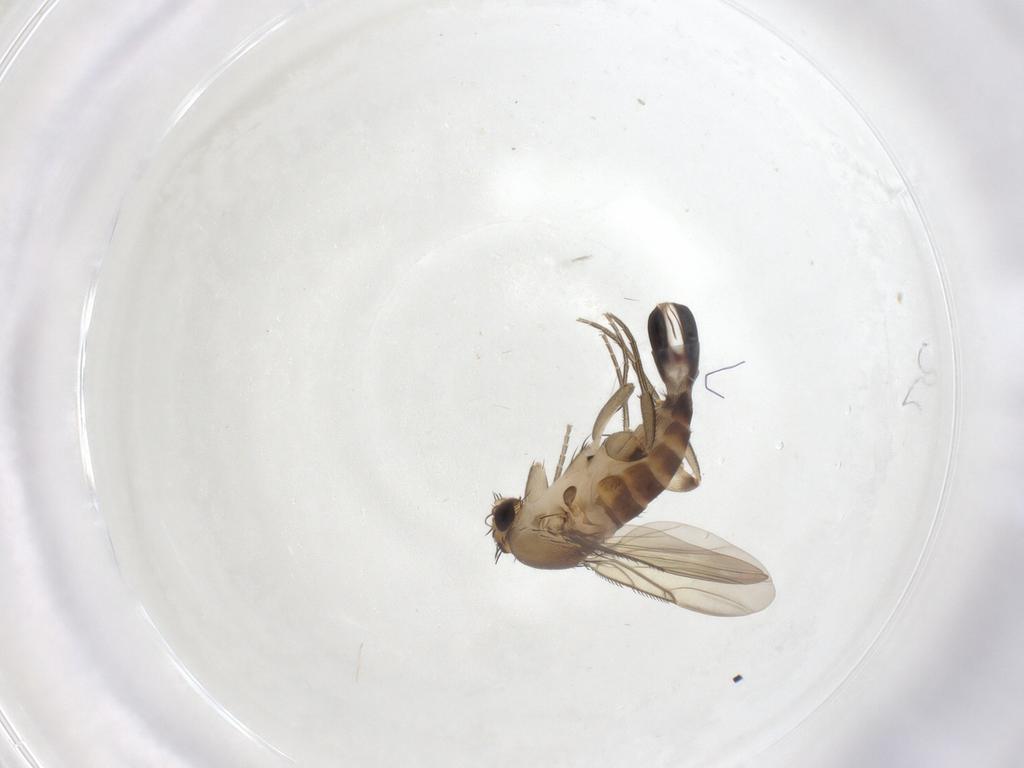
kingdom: Animalia
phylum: Arthropoda
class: Insecta
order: Diptera
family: Phoridae
